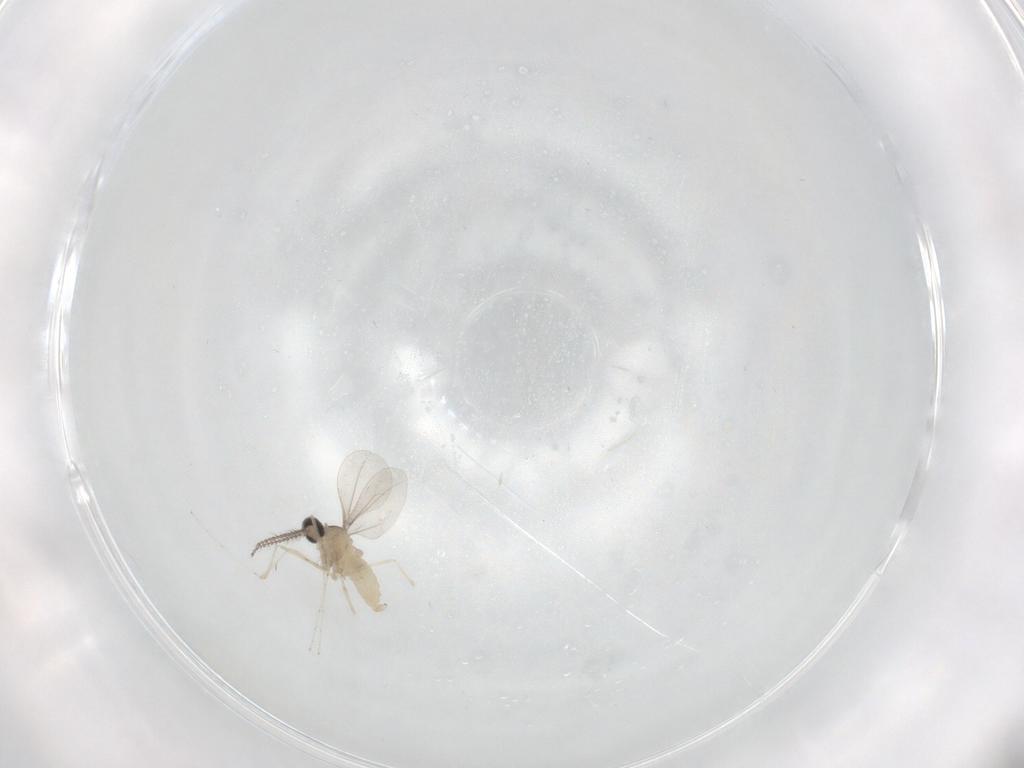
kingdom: Animalia
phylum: Arthropoda
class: Insecta
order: Diptera
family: Cecidomyiidae
